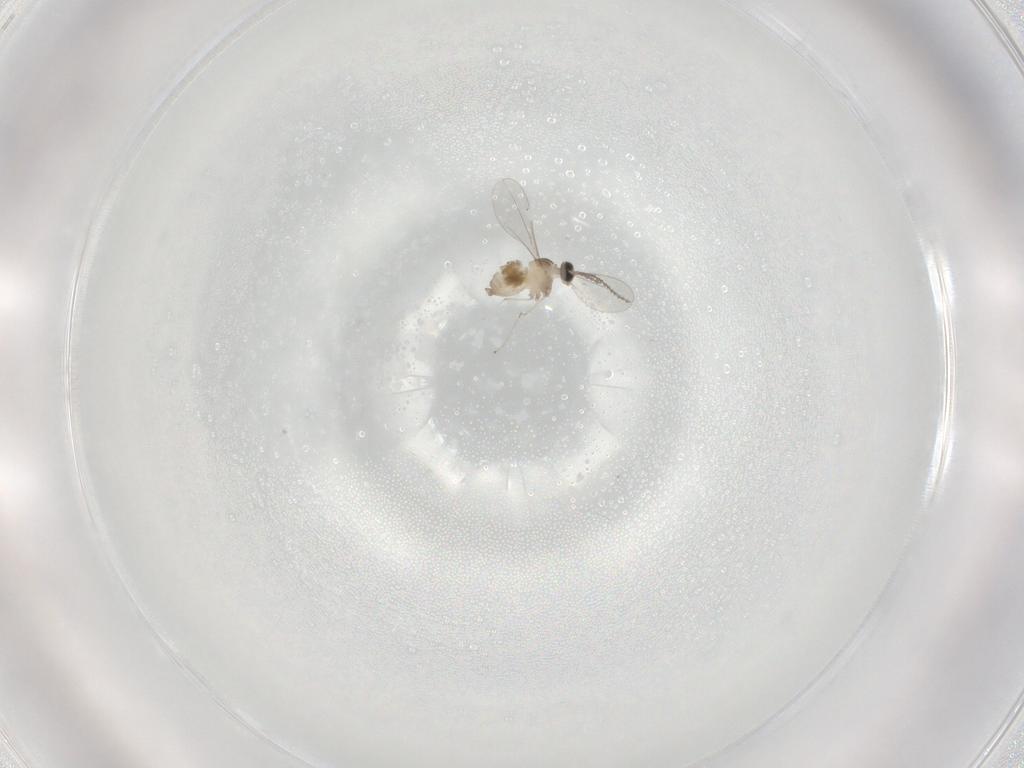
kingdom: Animalia
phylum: Arthropoda
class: Insecta
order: Diptera
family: Cecidomyiidae
